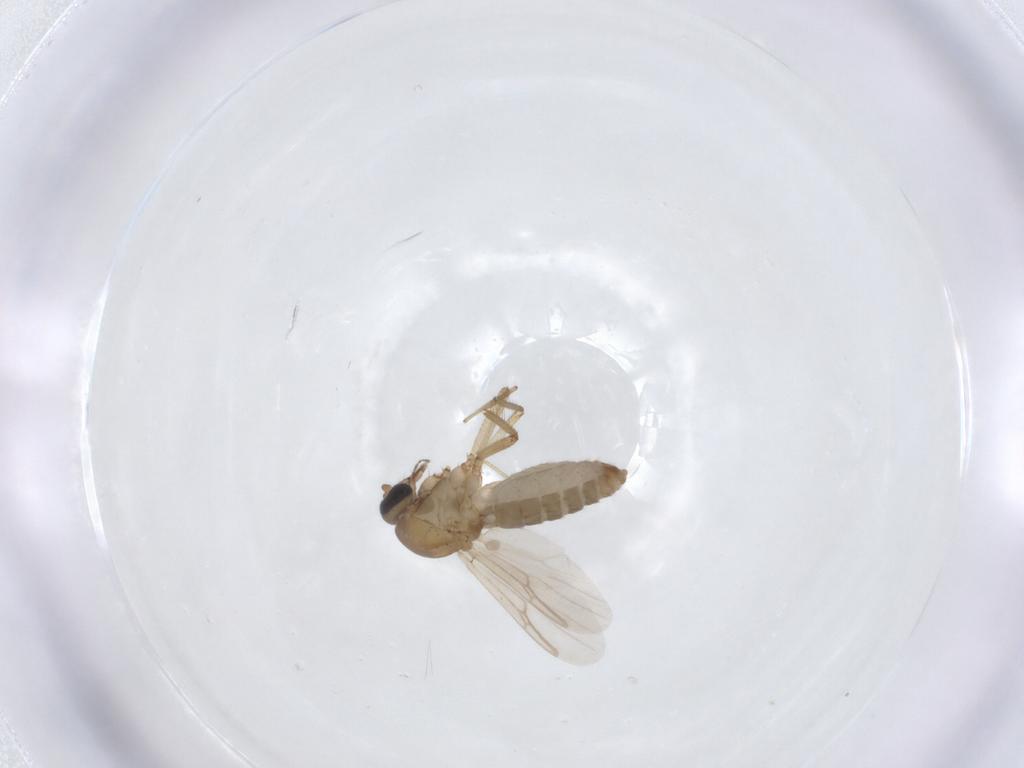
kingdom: Animalia
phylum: Arthropoda
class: Insecta
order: Diptera
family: Ceratopogonidae
